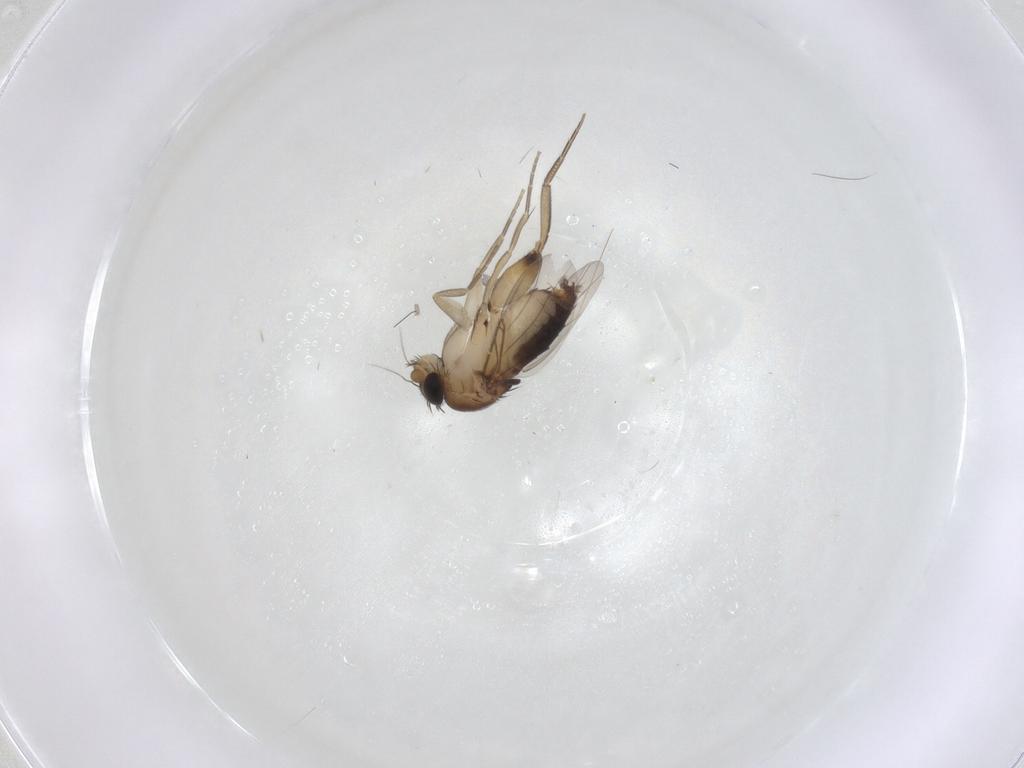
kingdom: Animalia
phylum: Arthropoda
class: Insecta
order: Diptera
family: Phoridae
